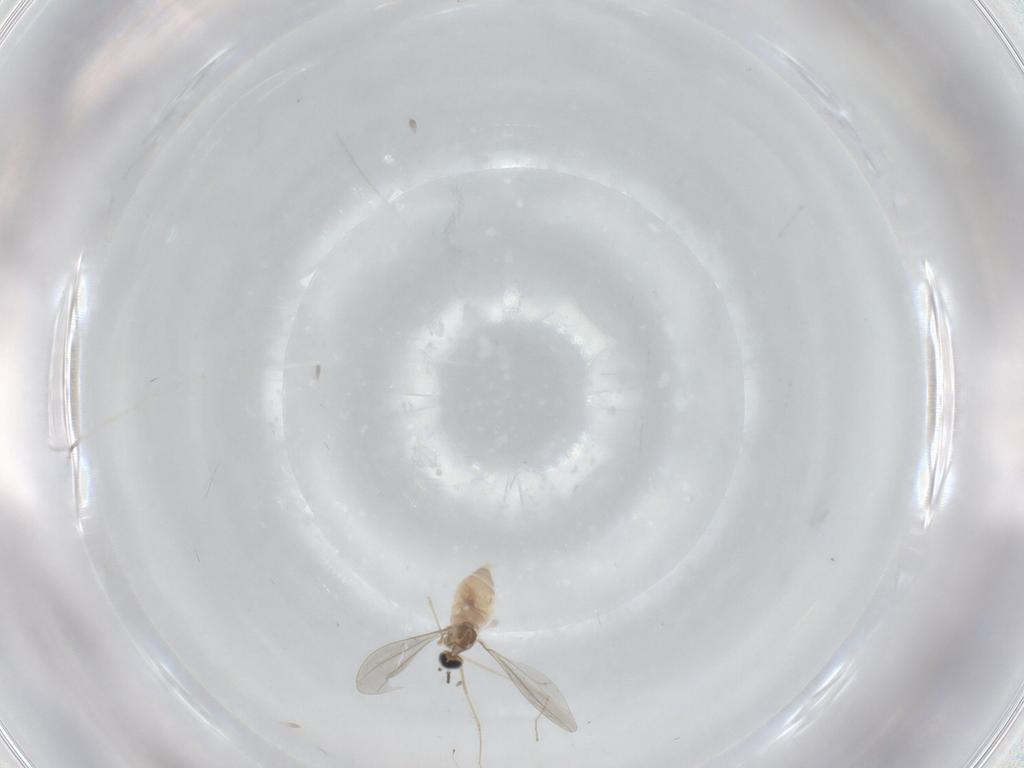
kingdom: Animalia
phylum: Arthropoda
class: Insecta
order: Diptera
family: Cecidomyiidae
